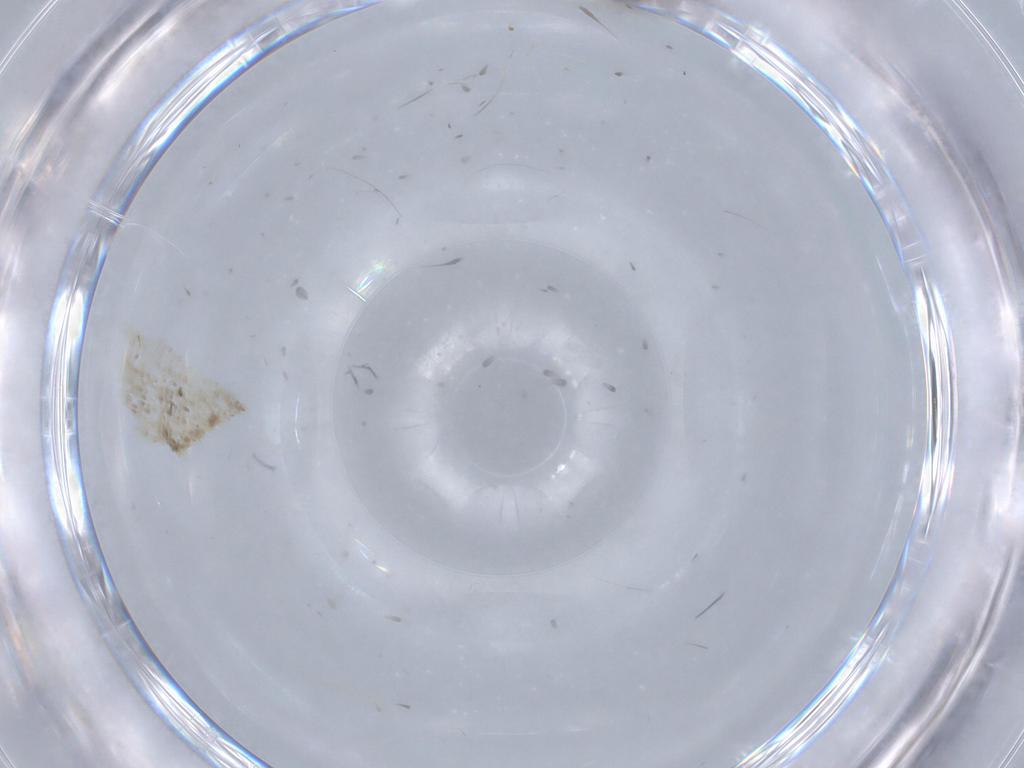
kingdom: Animalia
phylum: Arthropoda
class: Insecta
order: Diptera
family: Sciaridae
